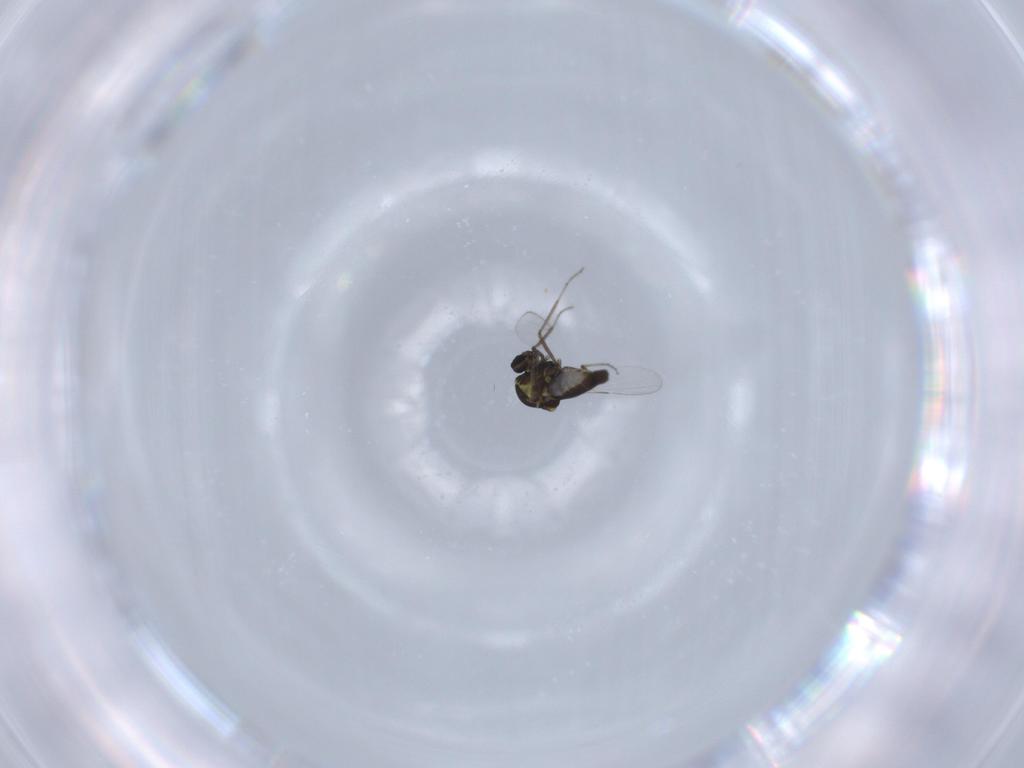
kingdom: Animalia
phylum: Arthropoda
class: Insecta
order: Diptera
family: Ceratopogonidae
